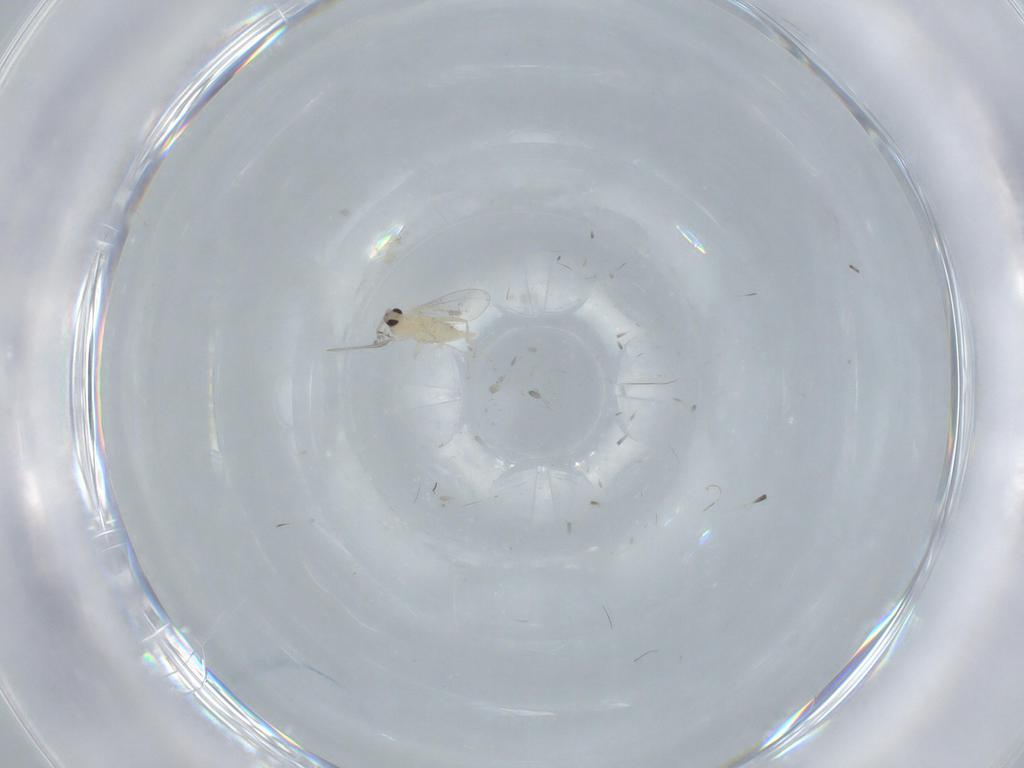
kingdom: Animalia
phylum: Arthropoda
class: Insecta
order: Diptera
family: Cecidomyiidae
